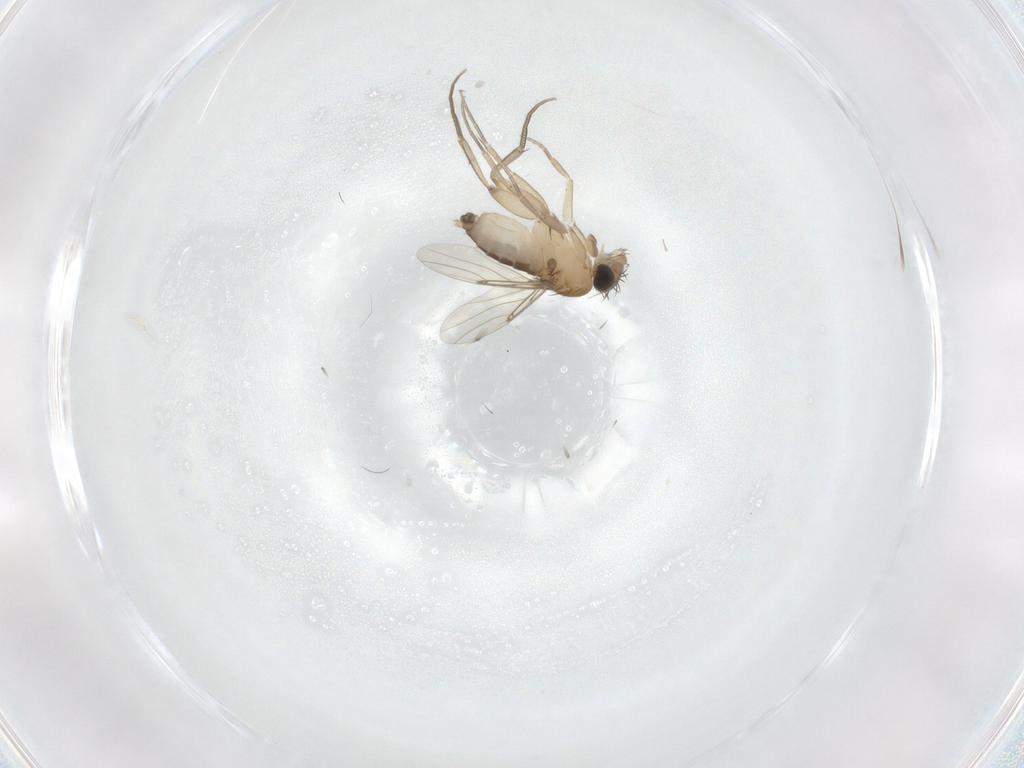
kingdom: Animalia
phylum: Arthropoda
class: Insecta
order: Diptera
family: Phoridae
